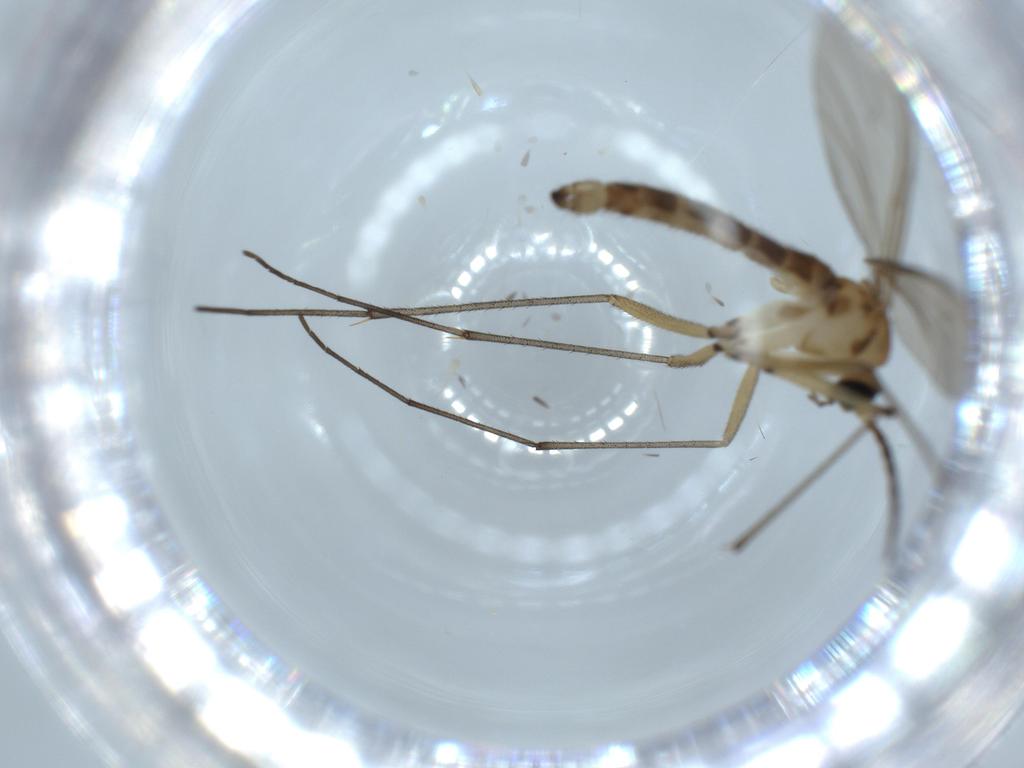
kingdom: Animalia
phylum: Arthropoda
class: Insecta
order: Diptera
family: Sciaridae
